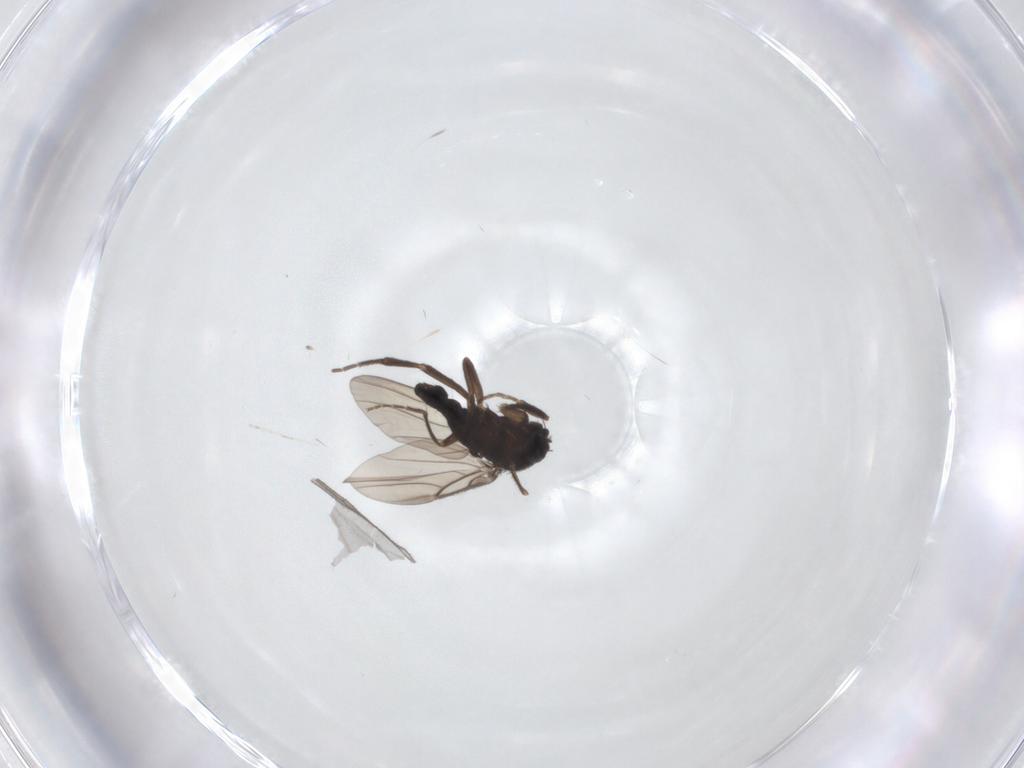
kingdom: Animalia
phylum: Arthropoda
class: Insecta
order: Diptera
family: Sciaridae
